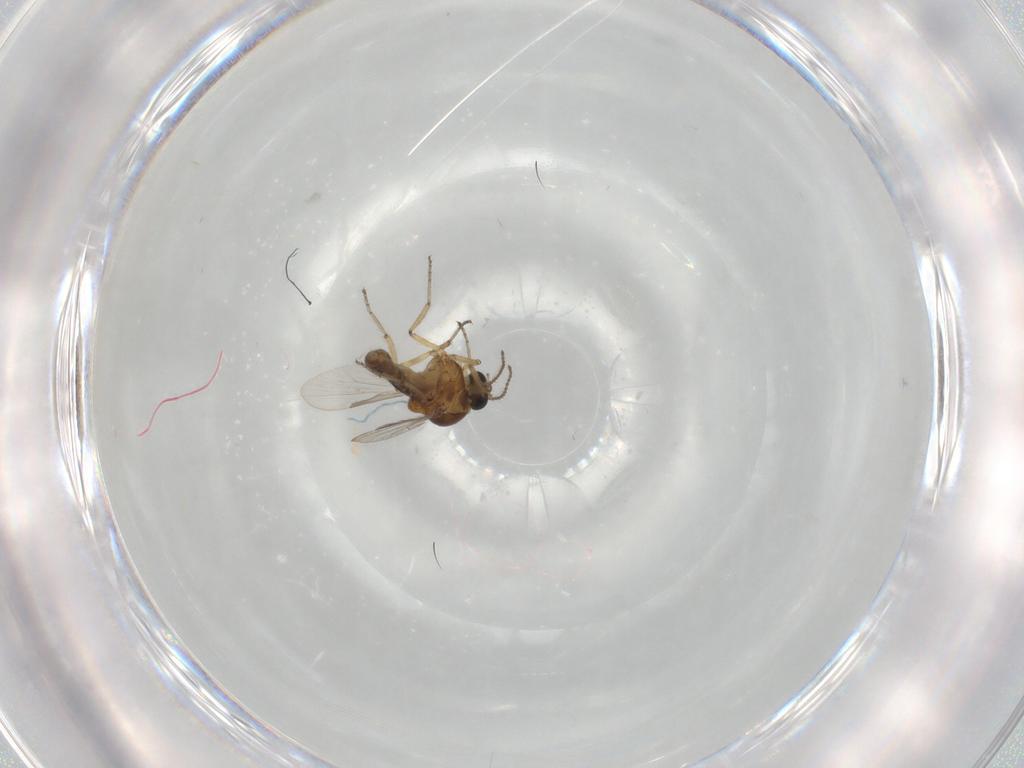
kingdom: Animalia
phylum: Arthropoda
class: Insecta
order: Diptera
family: Ceratopogonidae
